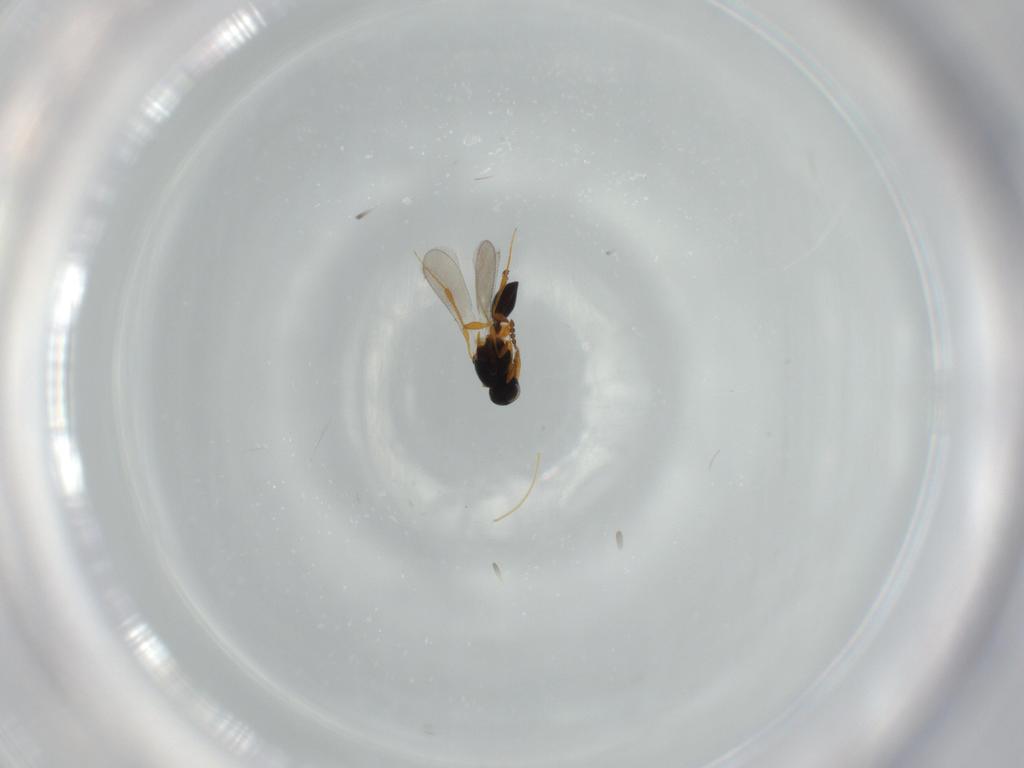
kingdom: Animalia
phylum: Arthropoda
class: Insecta
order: Hymenoptera
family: Platygastridae
